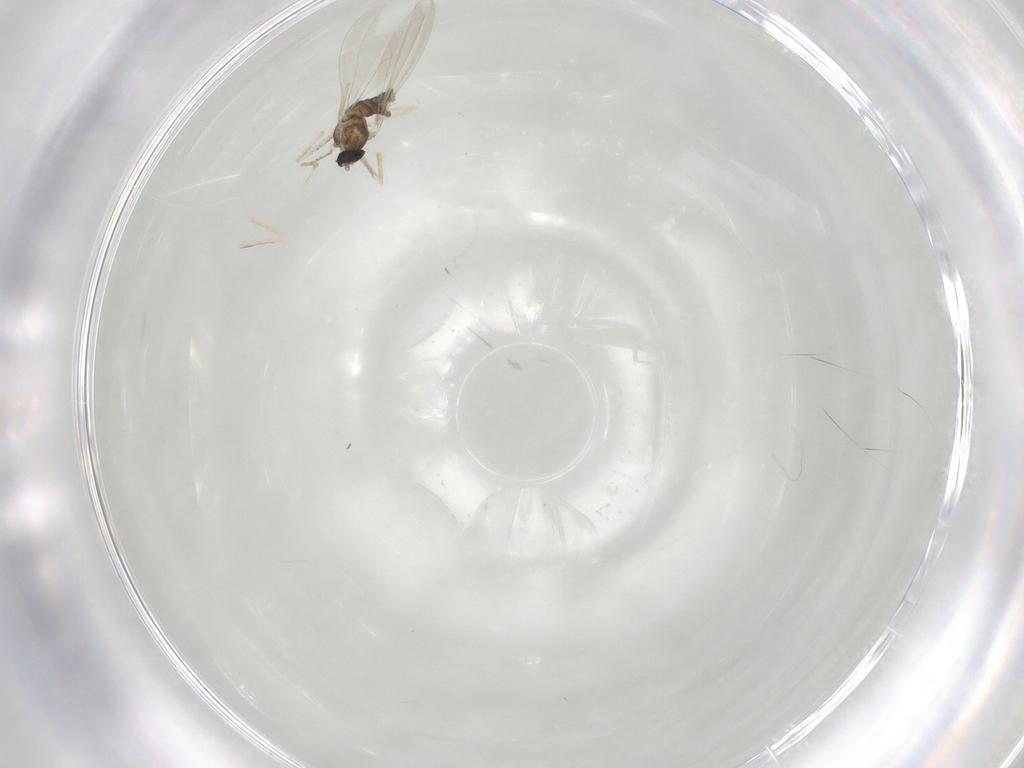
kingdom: Animalia
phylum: Arthropoda
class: Insecta
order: Diptera
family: Cecidomyiidae
